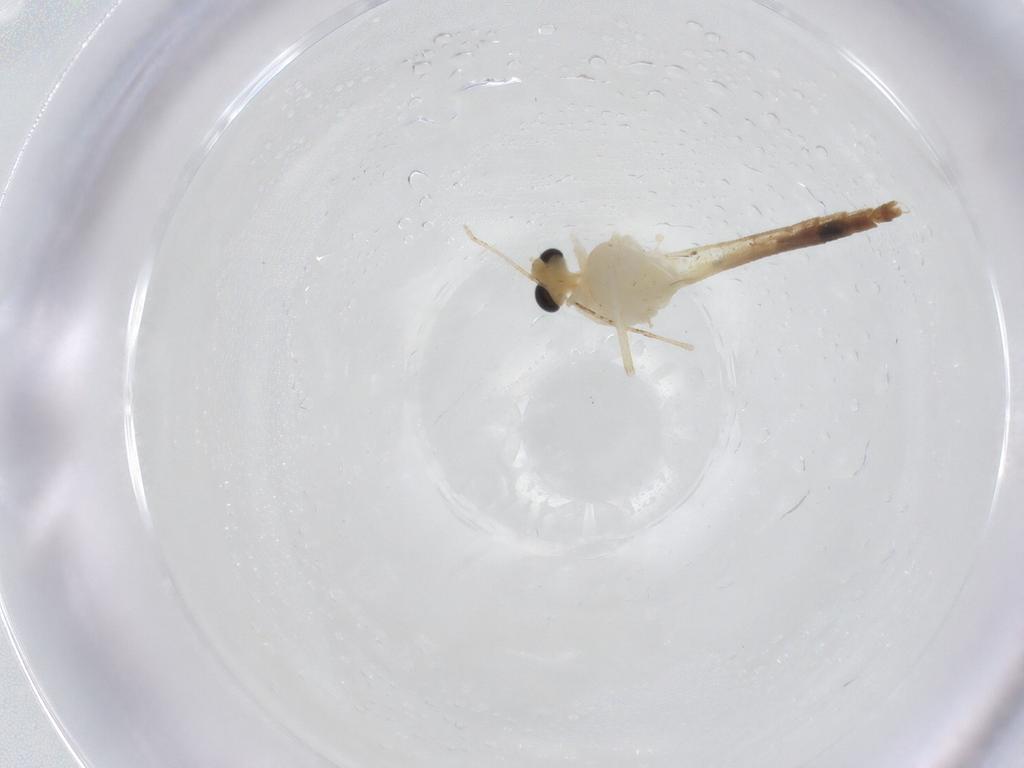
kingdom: Animalia
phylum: Arthropoda
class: Insecta
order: Diptera
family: Chironomidae
